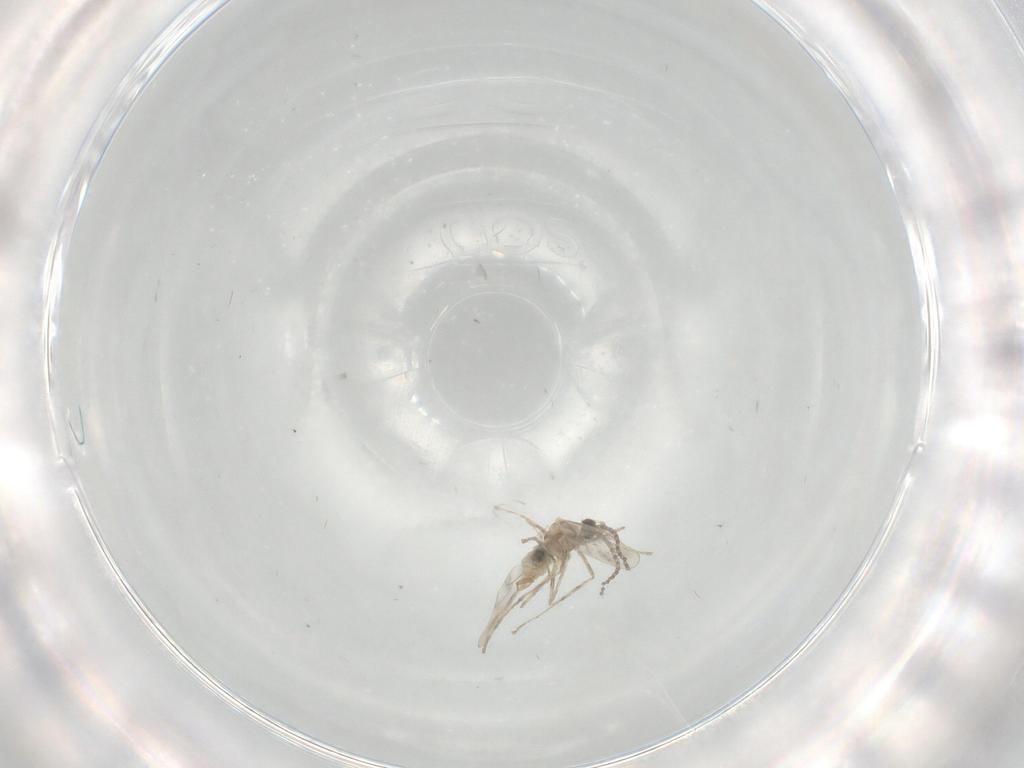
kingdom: Animalia
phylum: Arthropoda
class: Insecta
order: Diptera
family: Cecidomyiidae
